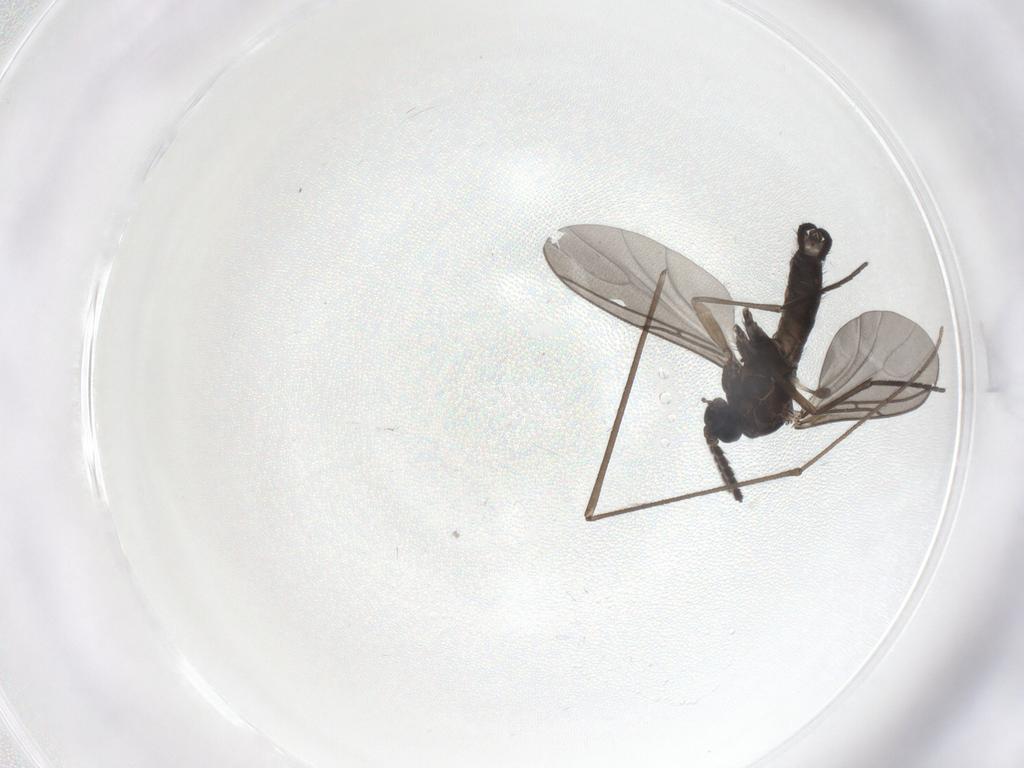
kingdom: Animalia
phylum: Arthropoda
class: Insecta
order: Diptera
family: Sciaridae
